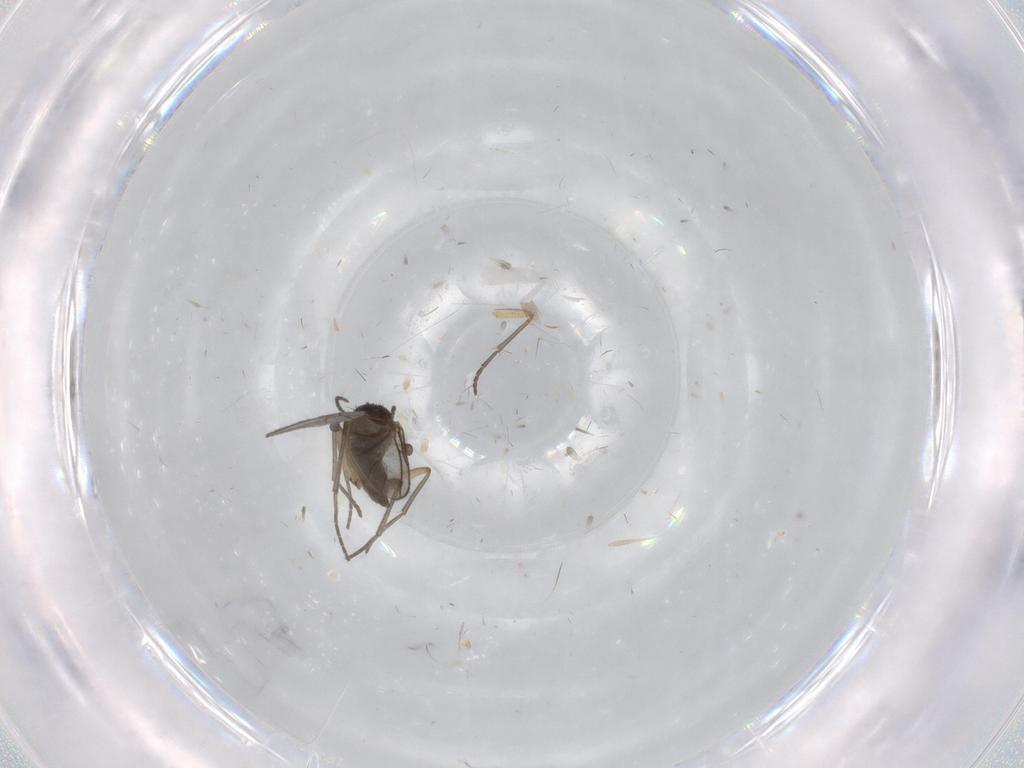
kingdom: Animalia
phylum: Arthropoda
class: Insecta
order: Diptera
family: Sciaridae
